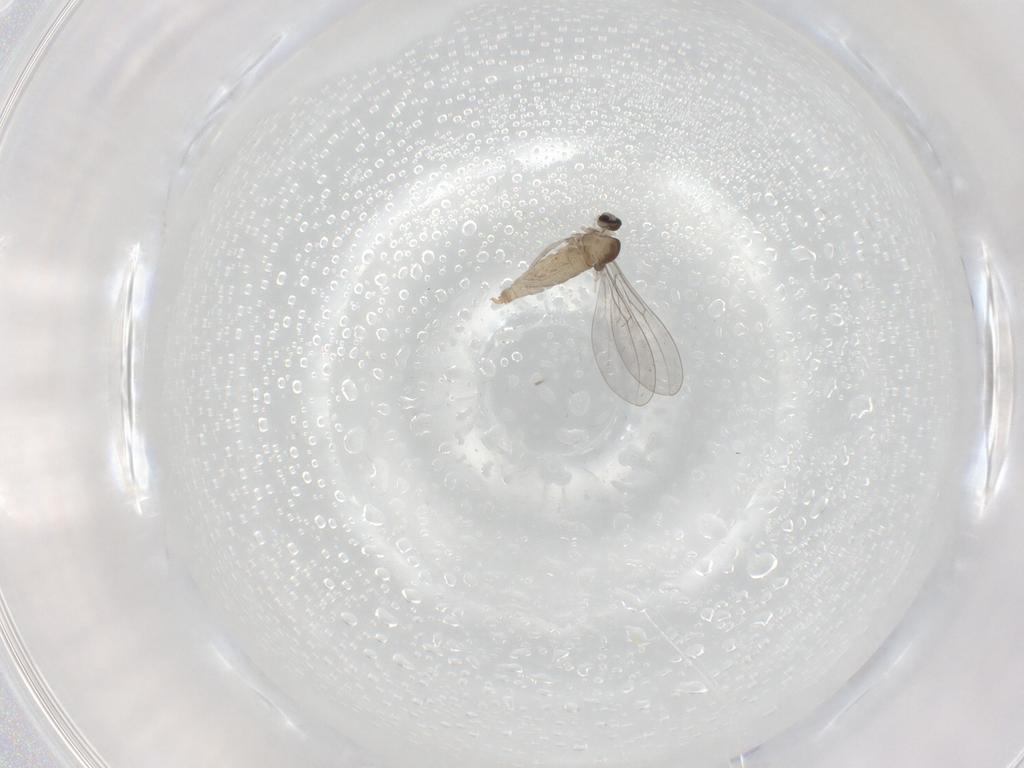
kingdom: Animalia
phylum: Arthropoda
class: Insecta
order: Diptera
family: Cecidomyiidae
